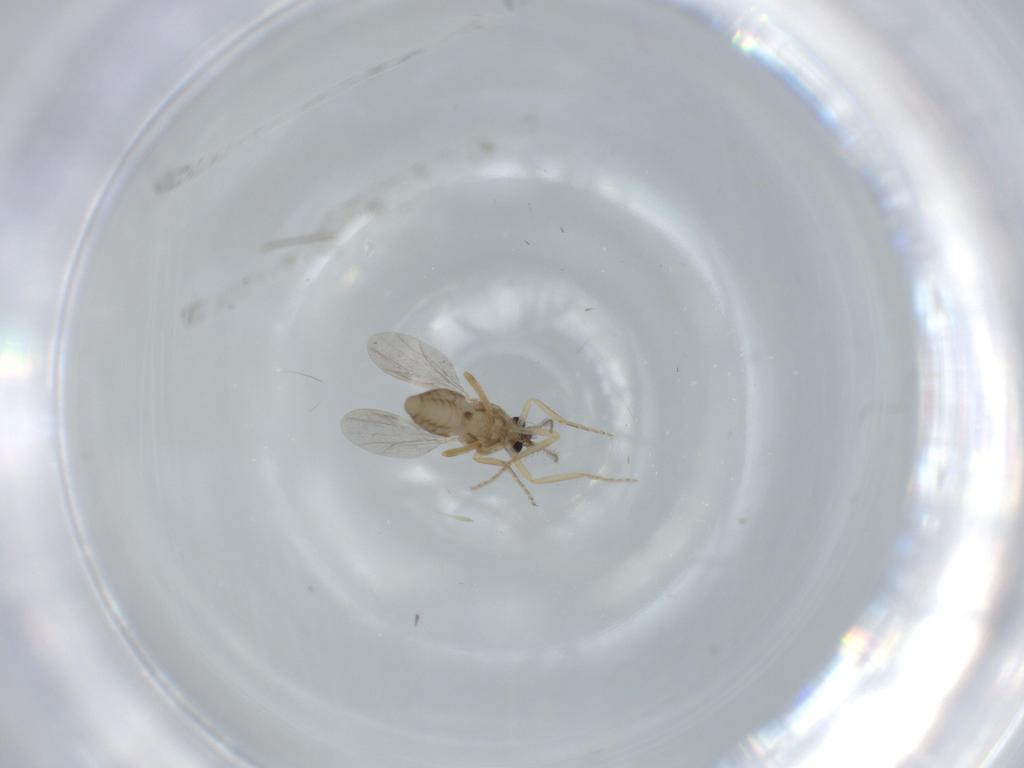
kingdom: Animalia
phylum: Arthropoda
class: Insecta
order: Diptera
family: Ceratopogonidae
